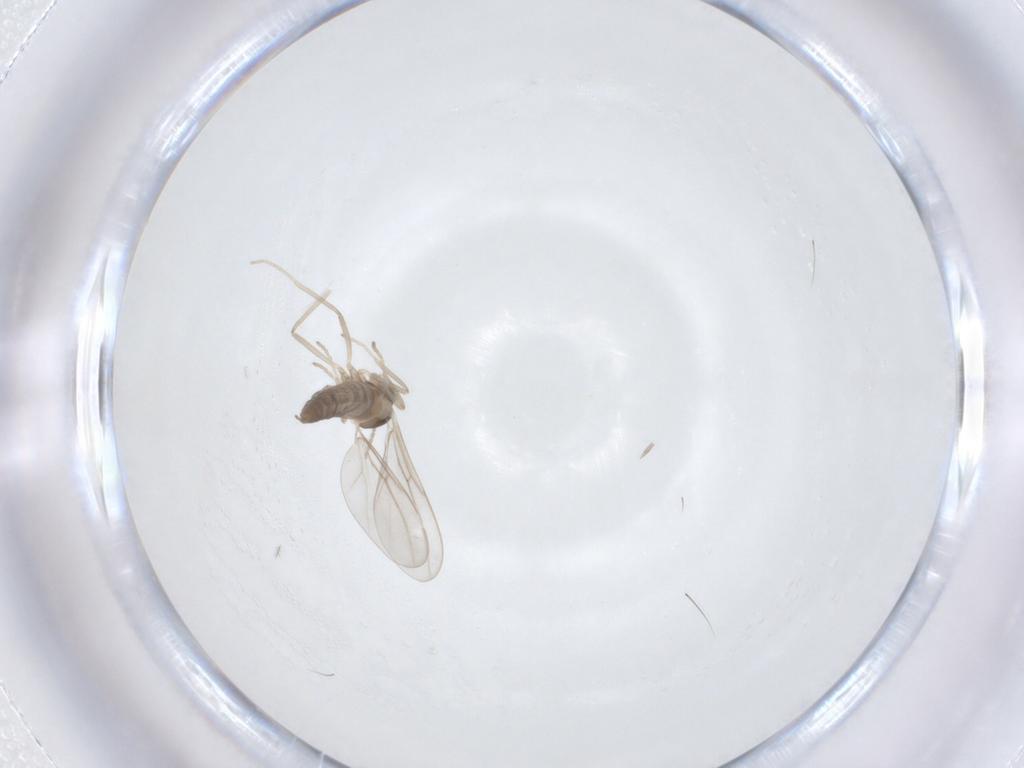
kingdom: Animalia
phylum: Arthropoda
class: Insecta
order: Diptera
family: Cecidomyiidae
